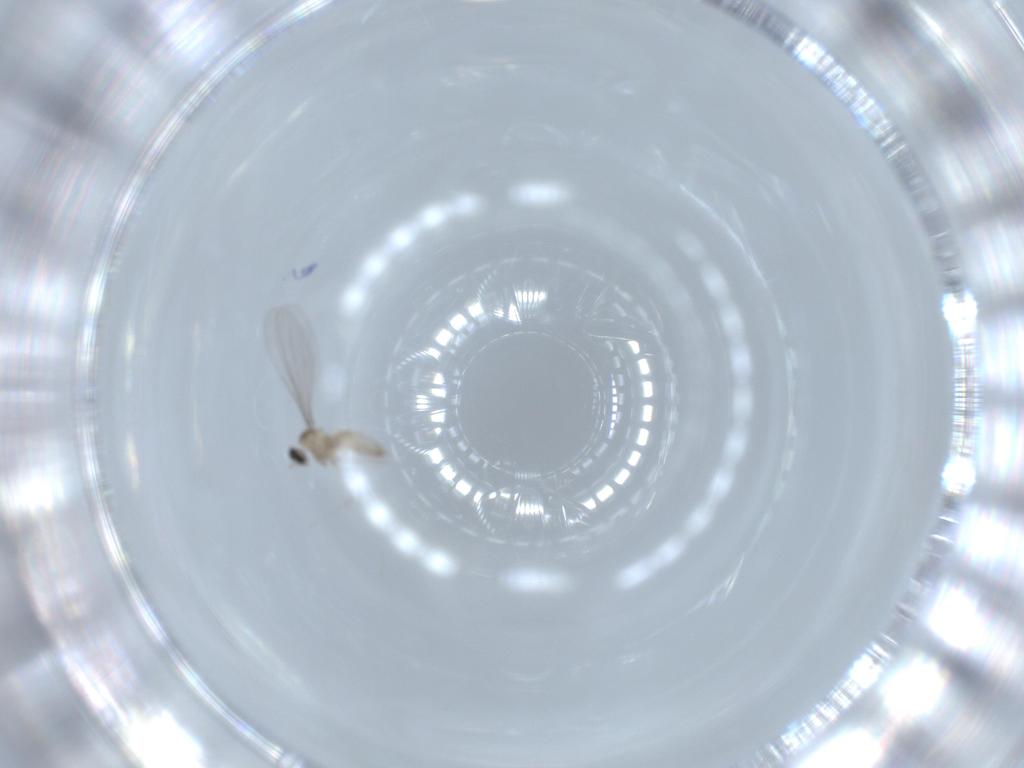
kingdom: Animalia
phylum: Arthropoda
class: Insecta
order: Diptera
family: Cecidomyiidae
